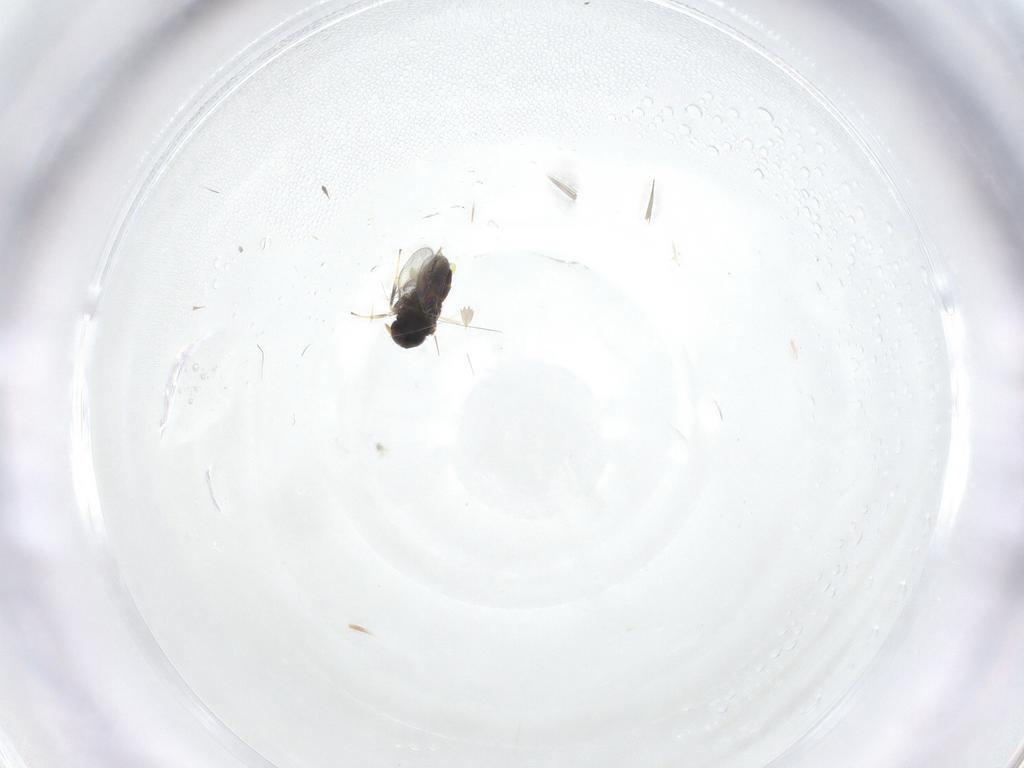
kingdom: Animalia
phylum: Arthropoda
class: Insecta
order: Hymenoptera
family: Aphelinidae
